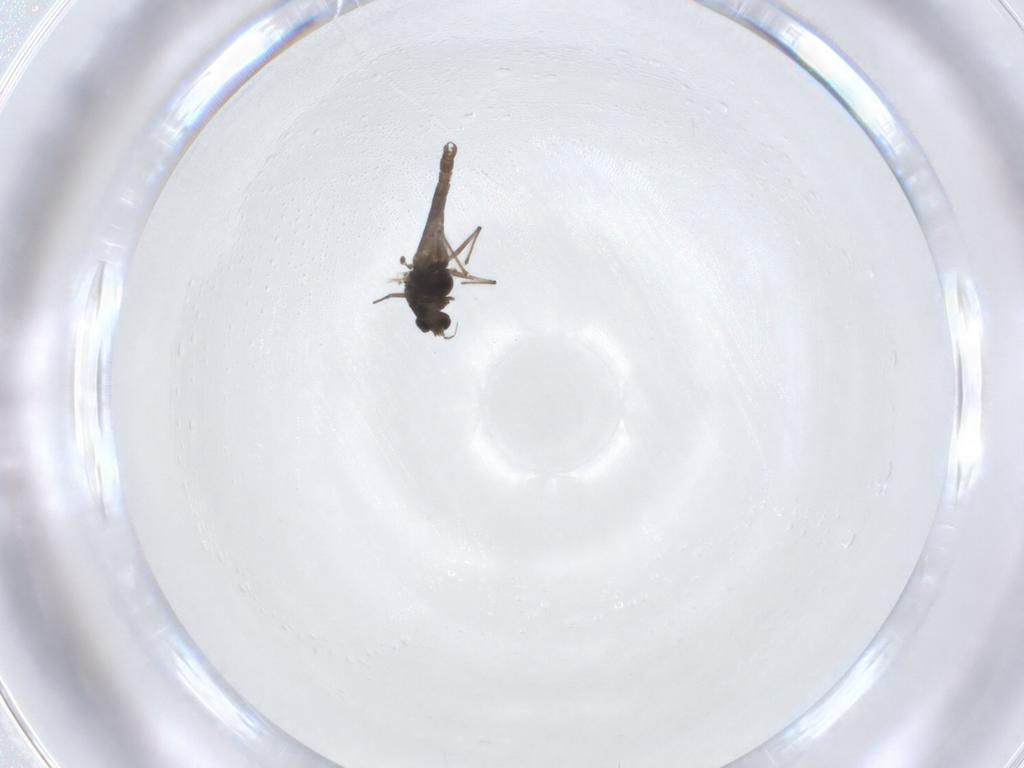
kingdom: Animalia
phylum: Arthropoda
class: Insecta
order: Diptera
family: Chironomidae
